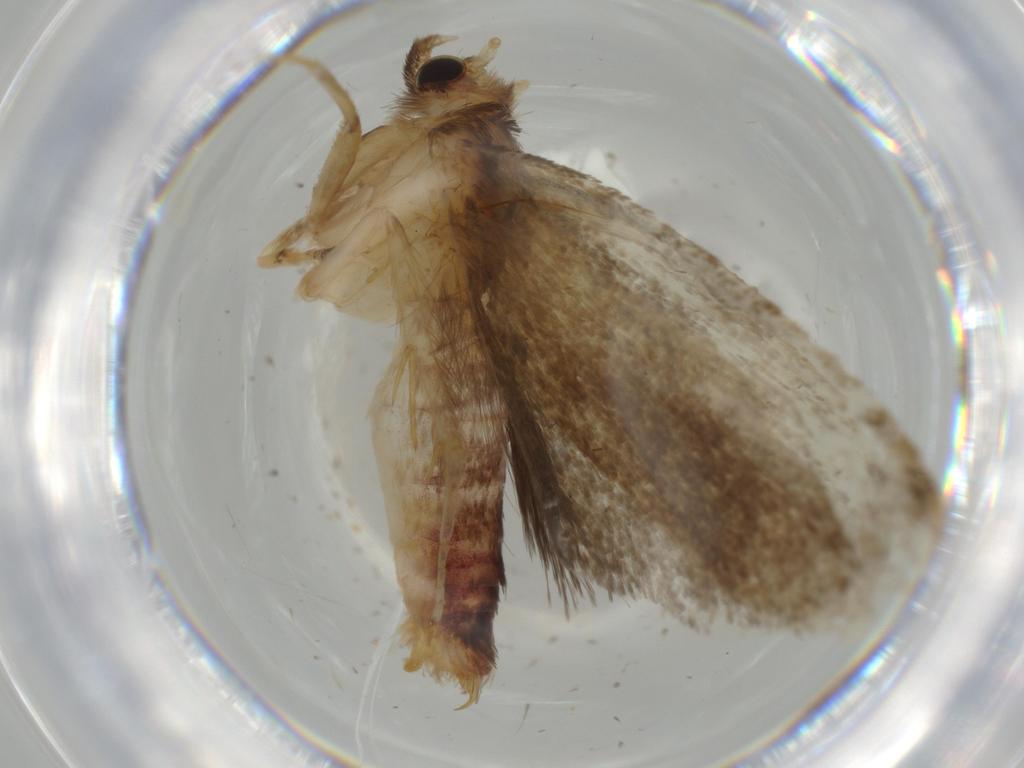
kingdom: Animalia
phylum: Arthropoda
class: Insecta
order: Lepidoptera
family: Tineidae
